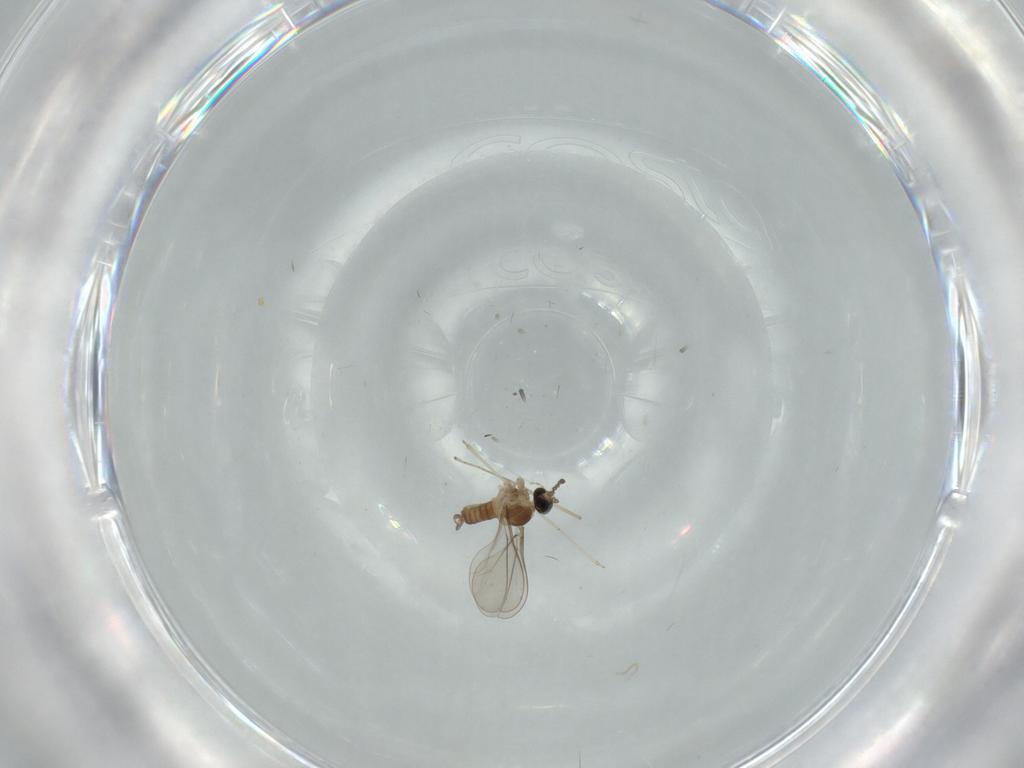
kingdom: Animalia
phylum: Arthropoda
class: Insecta
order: Diptera
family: Cecidomyiidae
